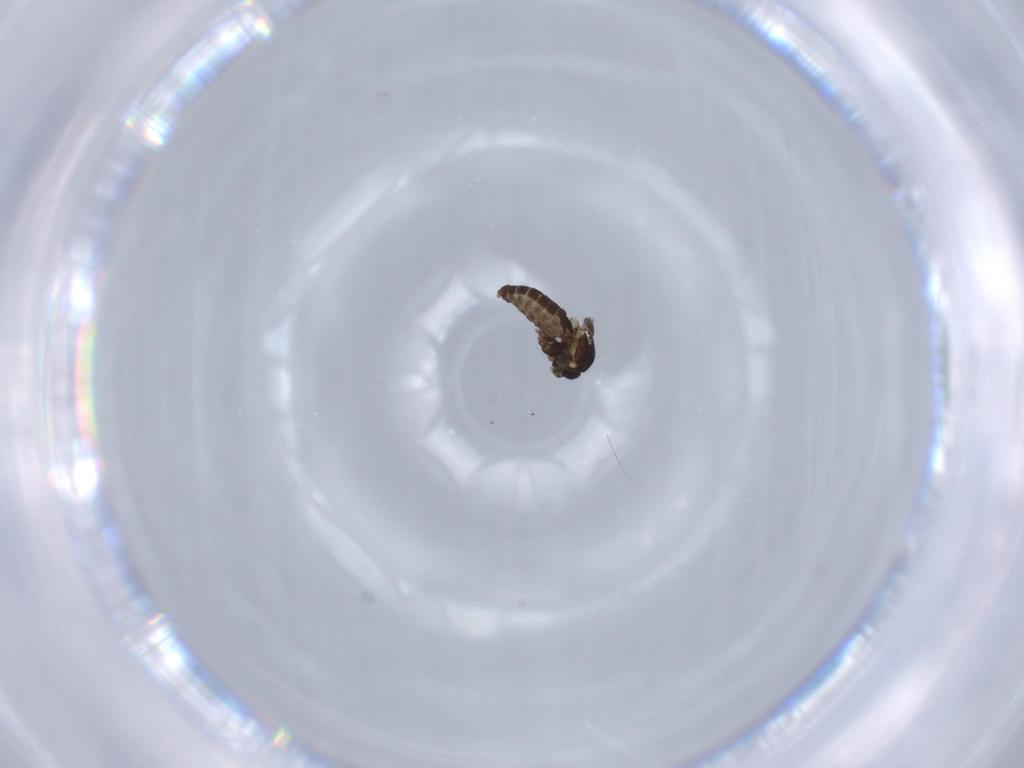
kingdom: Animalia
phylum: Arthropoda
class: Insecta
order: Diptera
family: Ceratopogonidae
